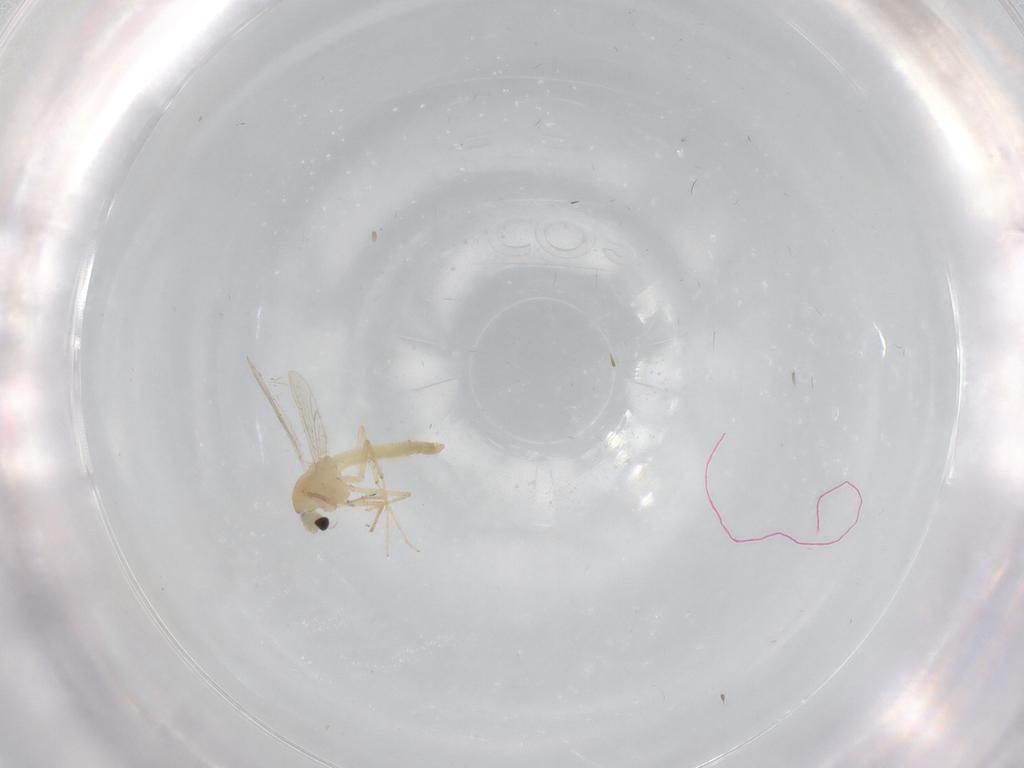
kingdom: Animalia
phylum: Arthropoda
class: Insecta
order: Diptera
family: Chironomidae
